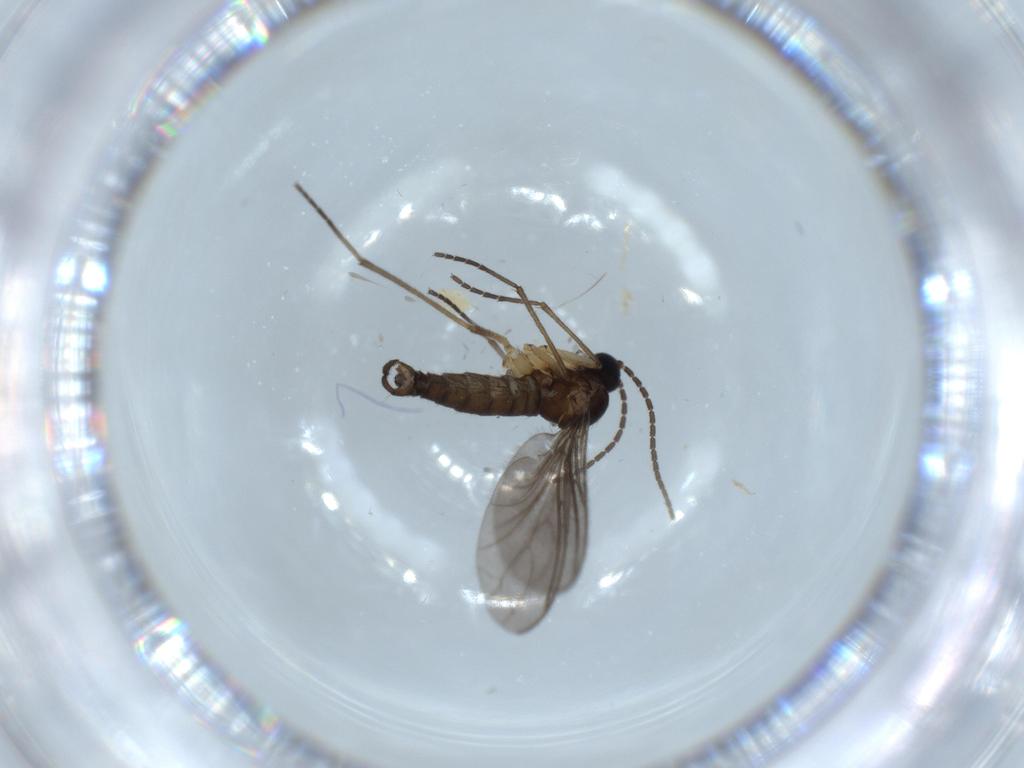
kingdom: Animalia
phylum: Arthropoda
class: Insecta
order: Diptera
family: Sciaridae
